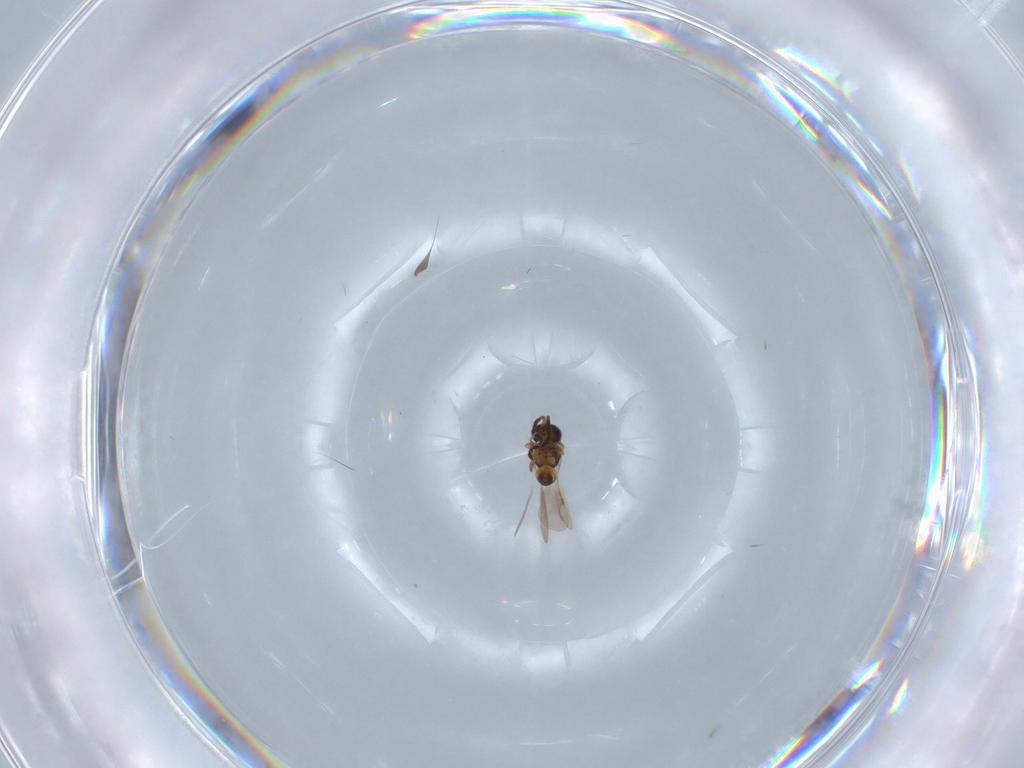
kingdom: Animalia
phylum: Arthropoda
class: Insecta
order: Hymenoptera
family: Ceraphronidae
